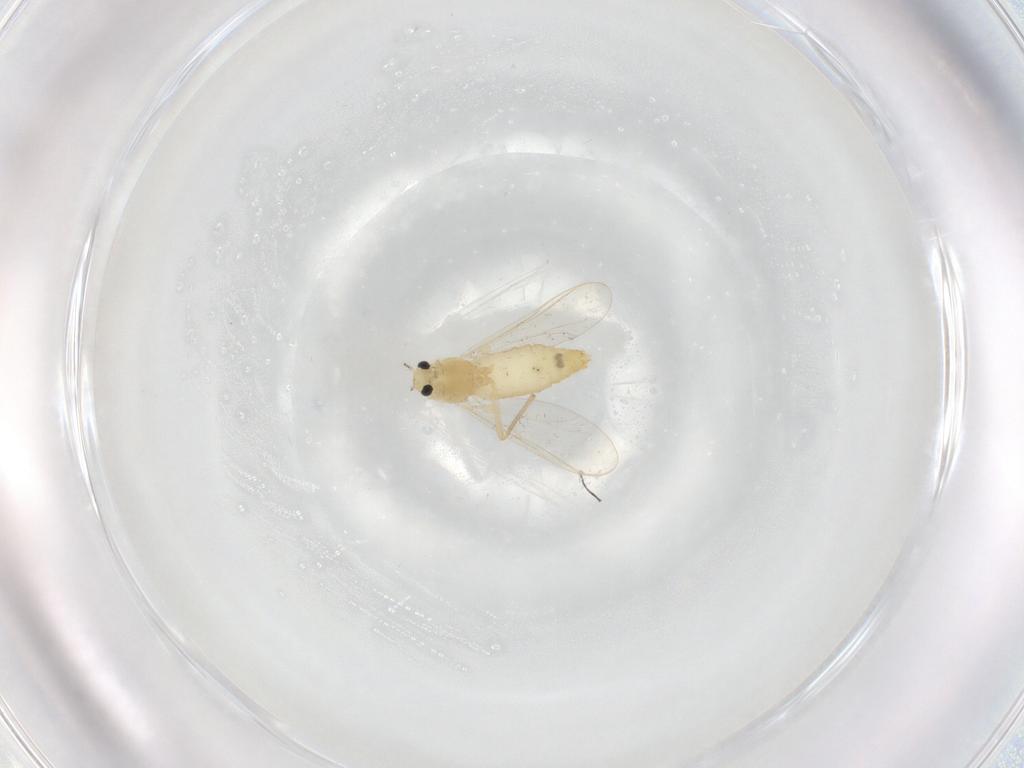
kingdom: Animalia
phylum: Arthropoda
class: Insecta
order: Diptera
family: Chironomidae
